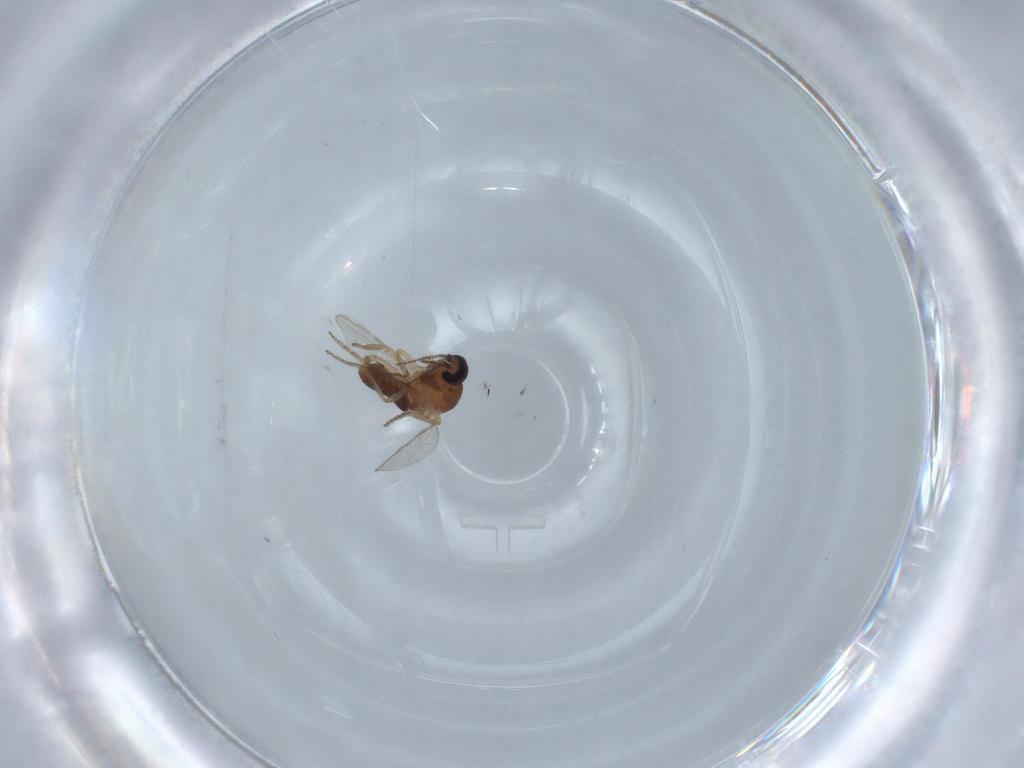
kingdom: Animalia
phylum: Arthropoda
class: Insecta
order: Diptera
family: Ceratopogonidae
